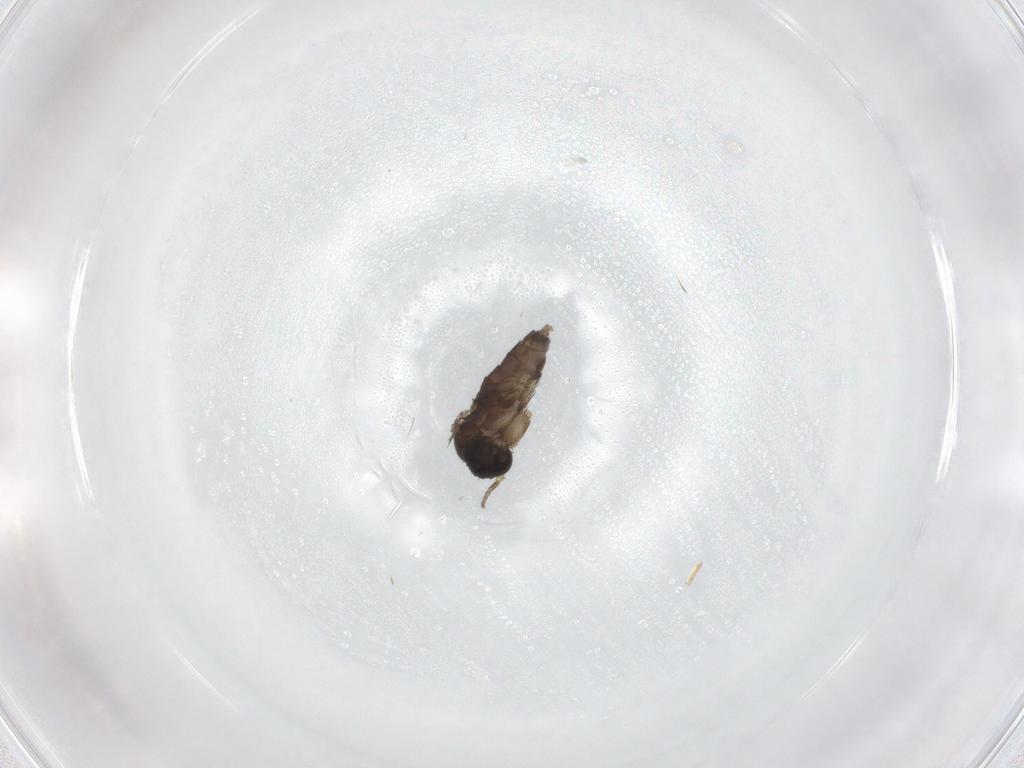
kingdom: Animalia
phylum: Arthropoda
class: Insecta
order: Diptera
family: Phoridae
